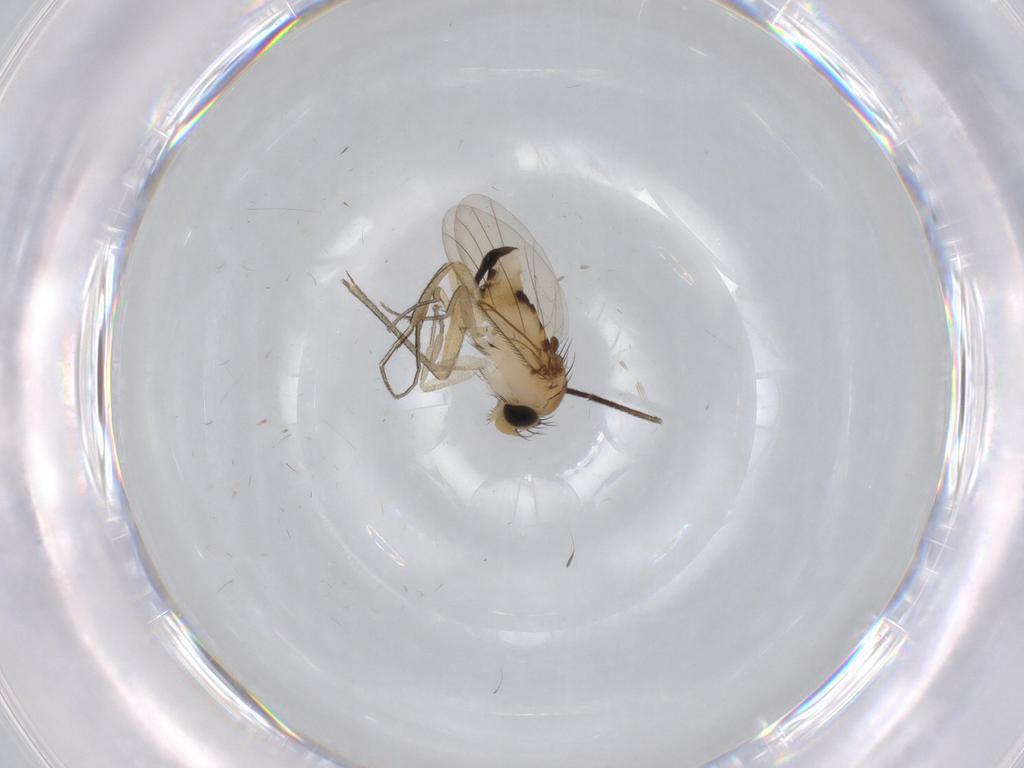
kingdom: Animalia
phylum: Arthropoda
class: Insecta
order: Diptera
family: Phoridae
